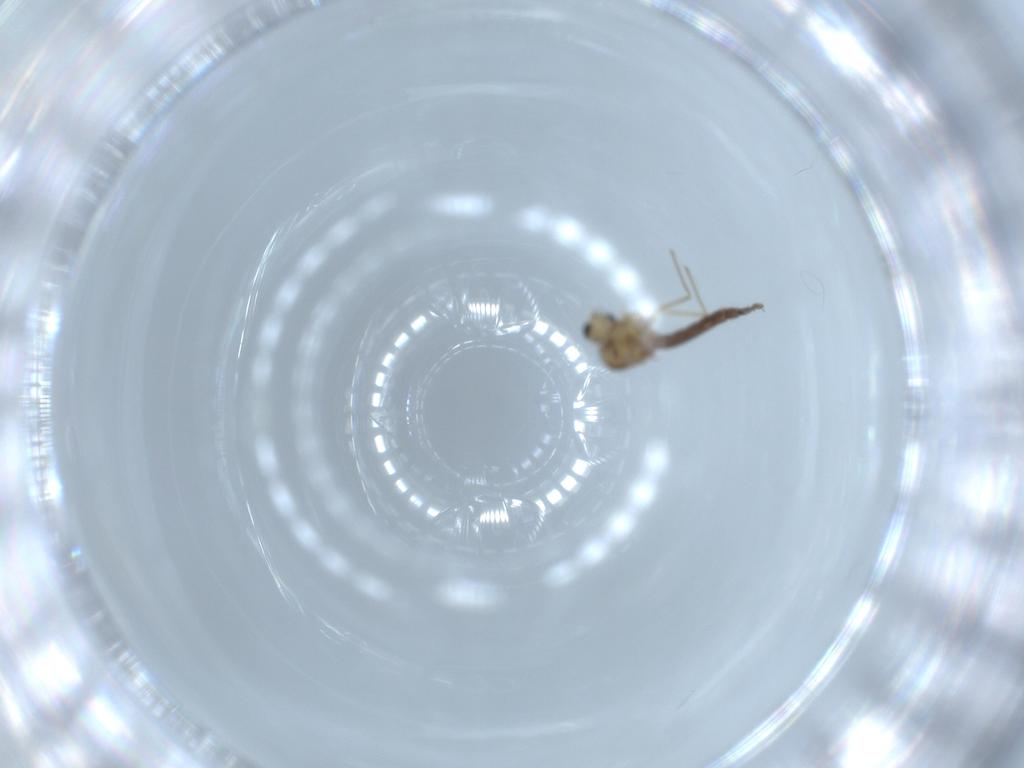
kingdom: Animalia
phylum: Arthropoda
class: Insecta
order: Diptera
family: Chironomidae
